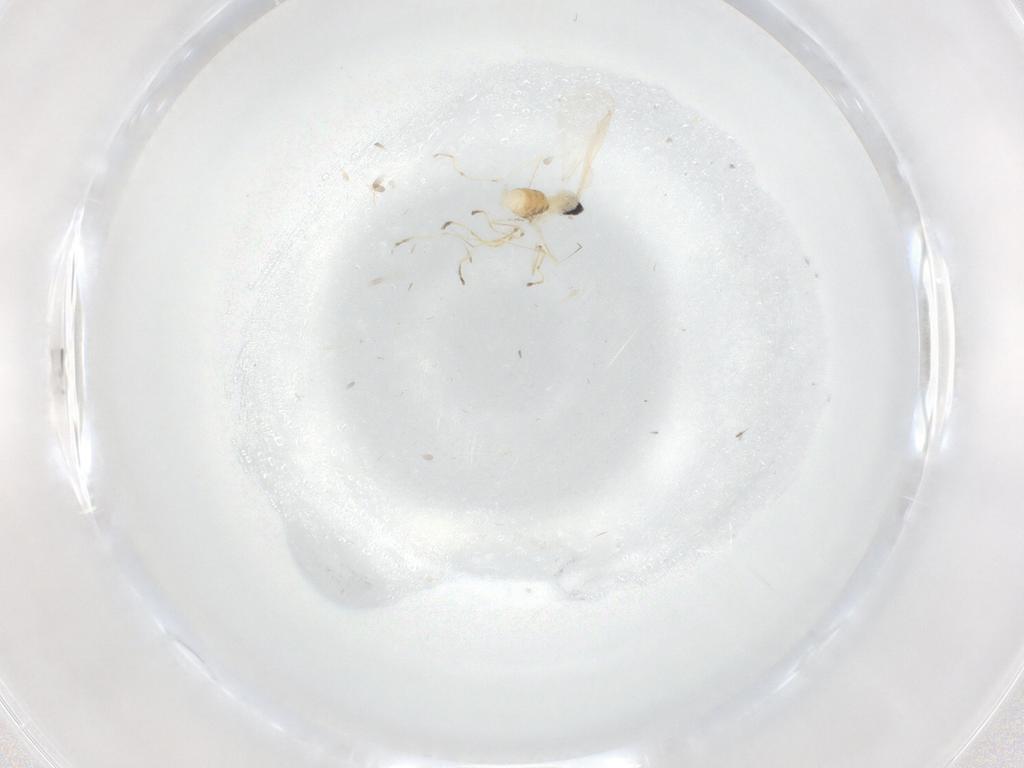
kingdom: Animalia
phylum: Arthropoda
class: Insecta
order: Diptera
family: Cecidomyiidae
